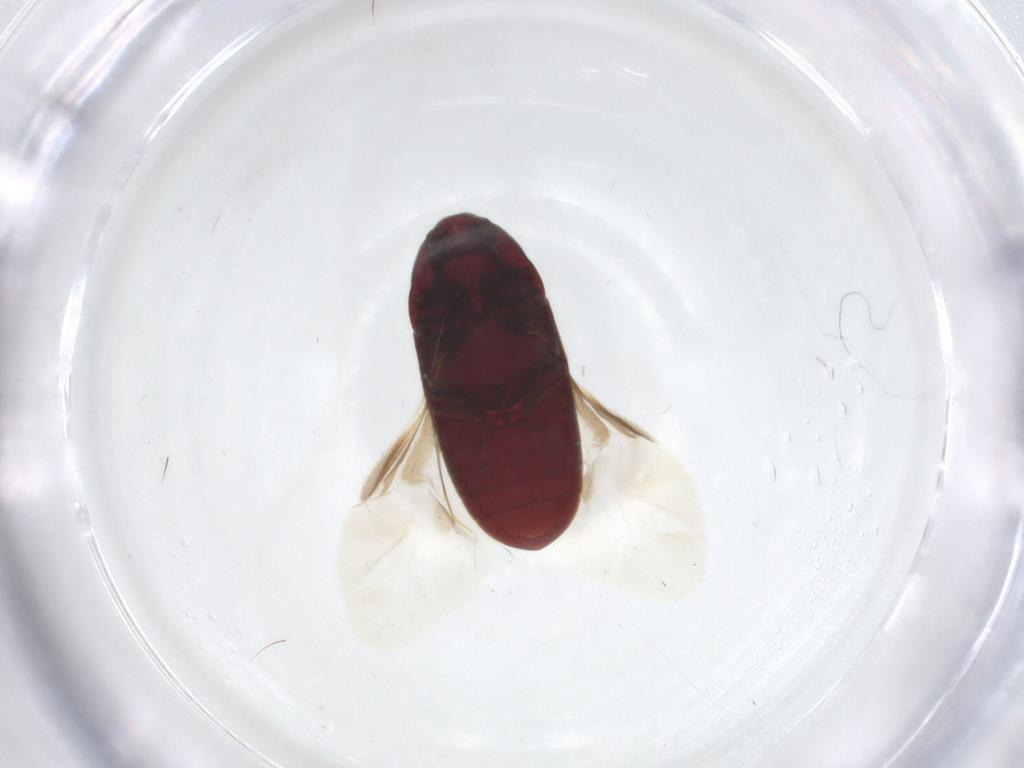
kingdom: Animalia
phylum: Arthropoda
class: Insecta
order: Coleoptera
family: Throscidae
